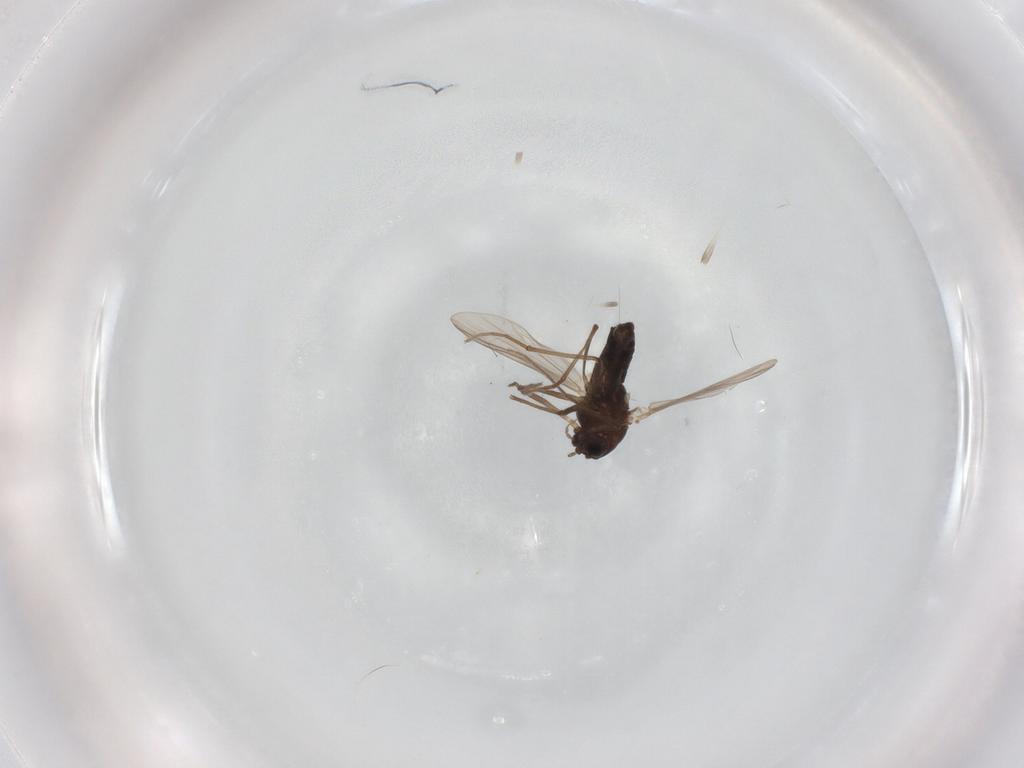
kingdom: Animalia
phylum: Arthropoda
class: Insecta
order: Diptera
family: Chironomidae
